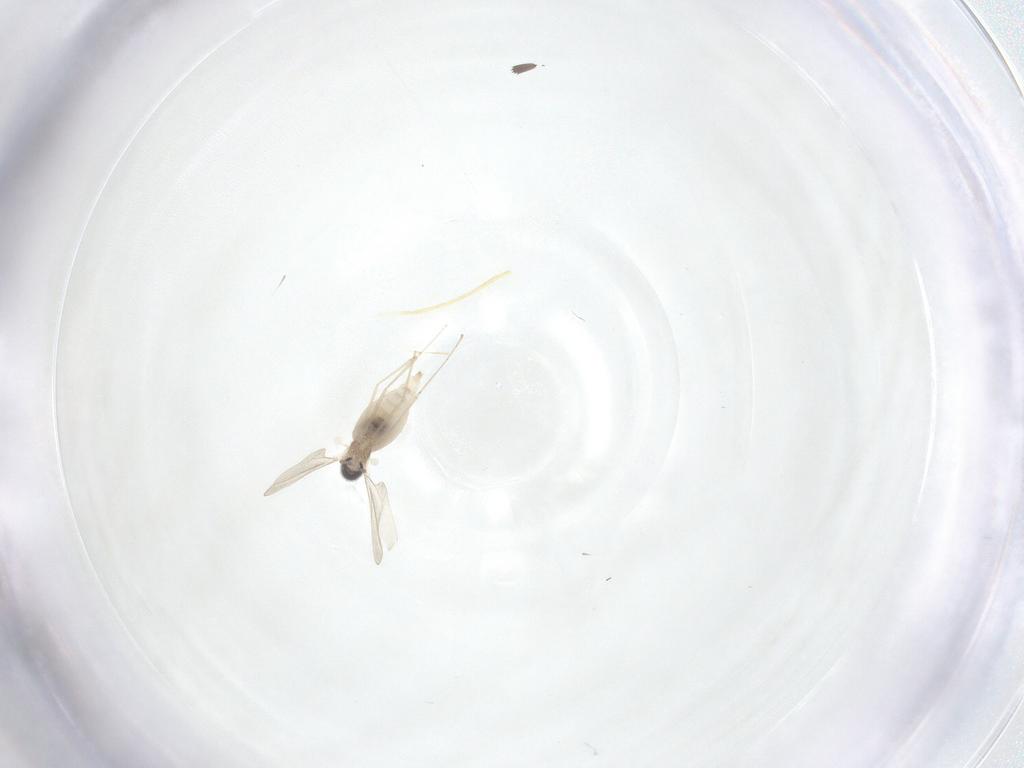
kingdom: Animalia
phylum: Arthropoda
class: Insecta
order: Diptera
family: Cecidomyiidae
